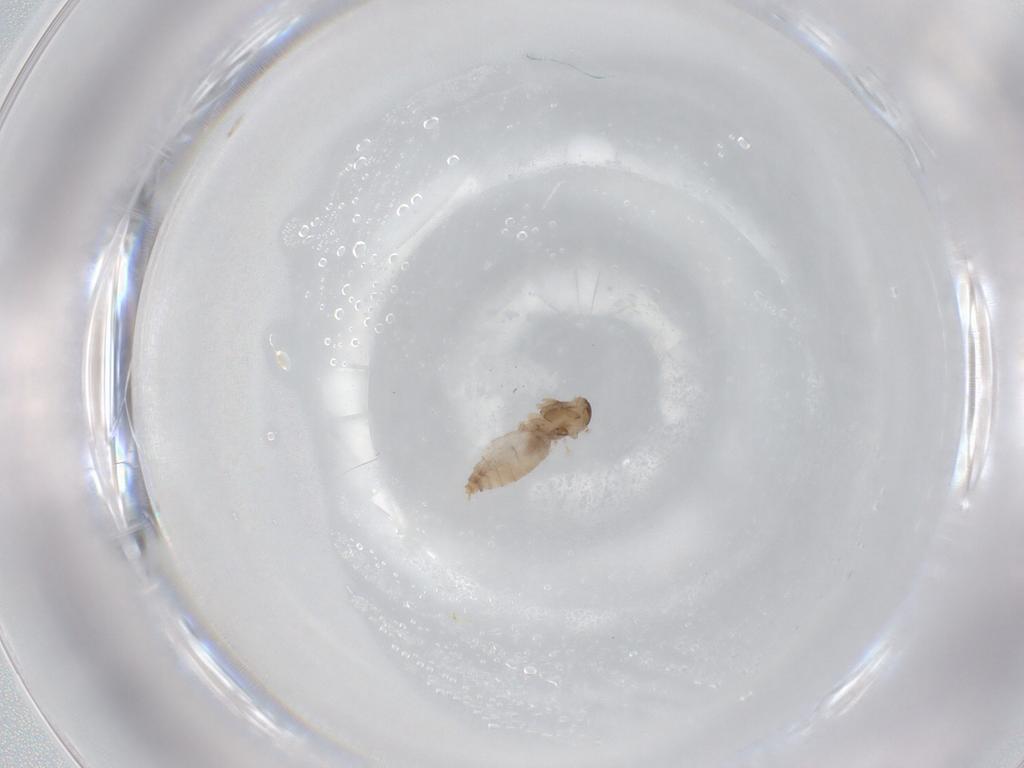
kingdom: Animalia
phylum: Arthropoda
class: Insecta
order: Diptera
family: Cecidomyiidae
